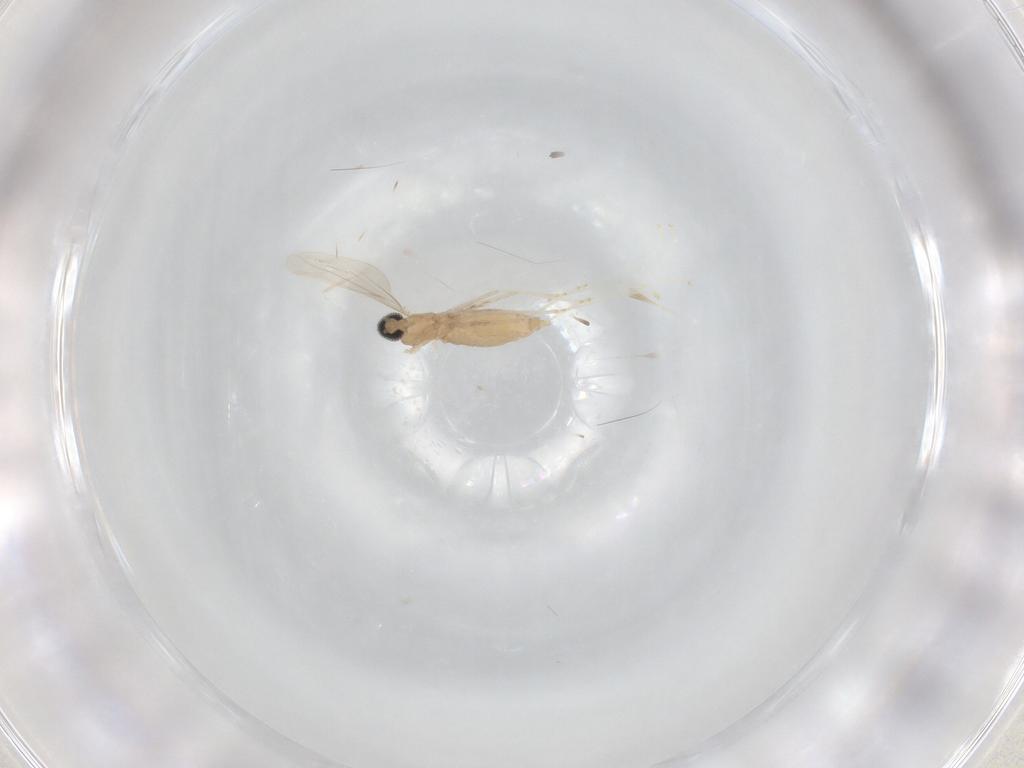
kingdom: Animalia
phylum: Arthropoda
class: Insecta
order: Diptera
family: Cecidomyiidae
